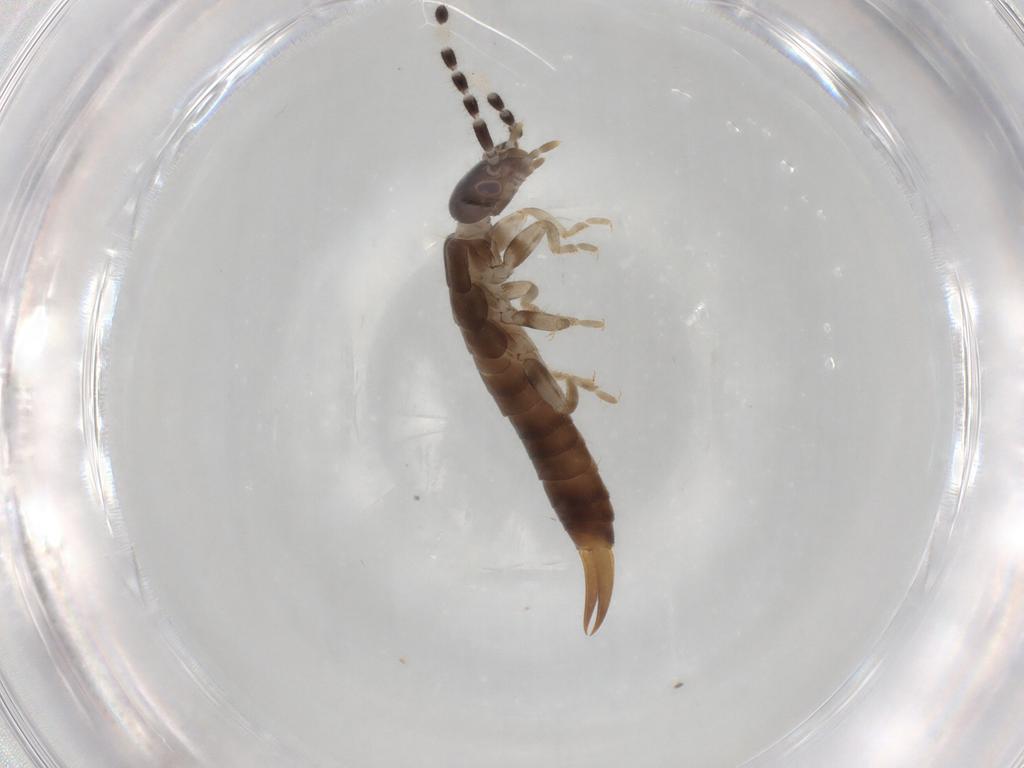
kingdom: Animalia
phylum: Arthropoda
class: Insecta
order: Dermaptera
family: Anisolabididae
